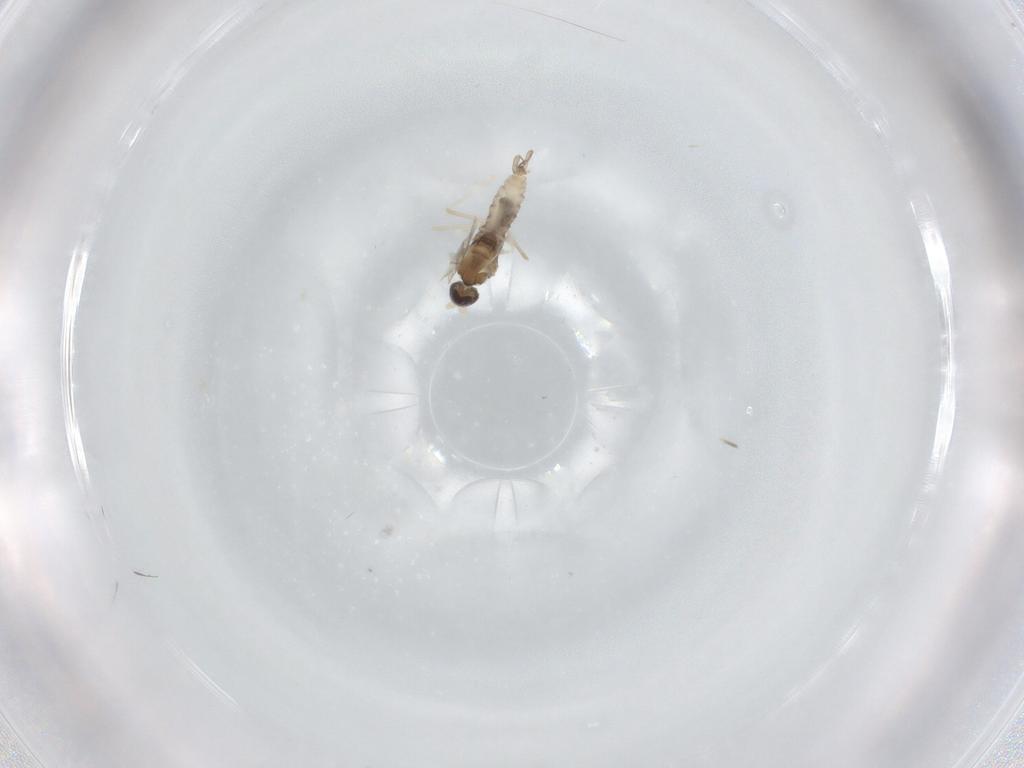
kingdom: Animalia
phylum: Arthropoda
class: Insecta
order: Diptera
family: Cecidomyiidae
